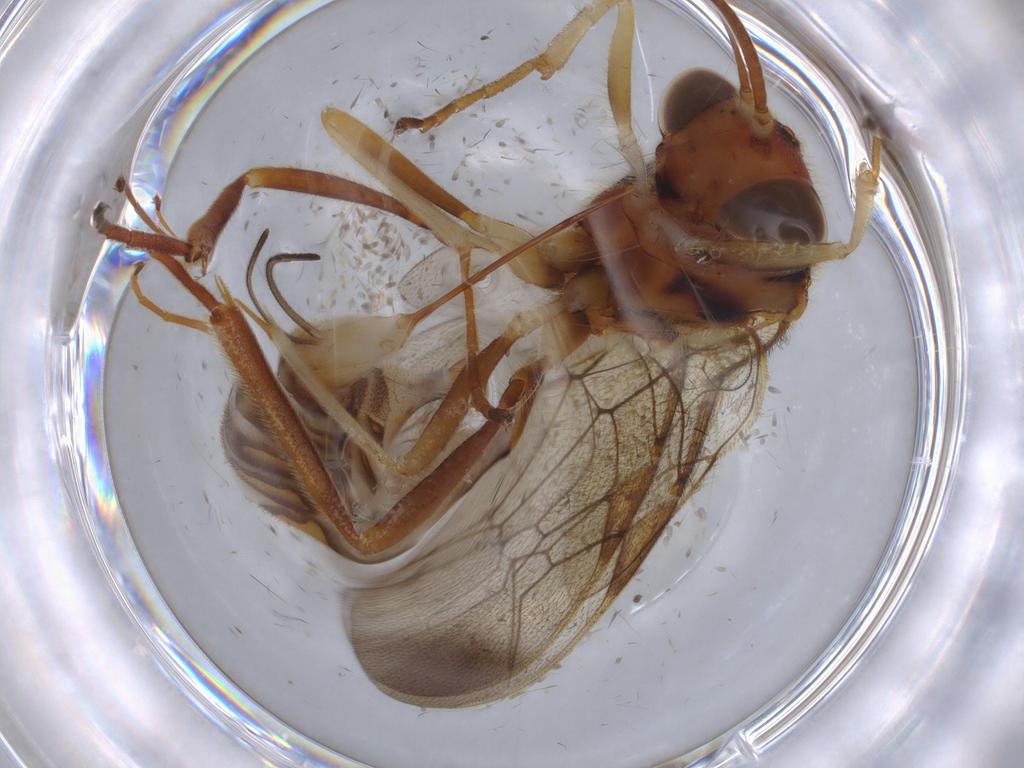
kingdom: Animalia
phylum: Arthropoda
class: Insecta
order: Hymenoptera
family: Ichneumonidae
